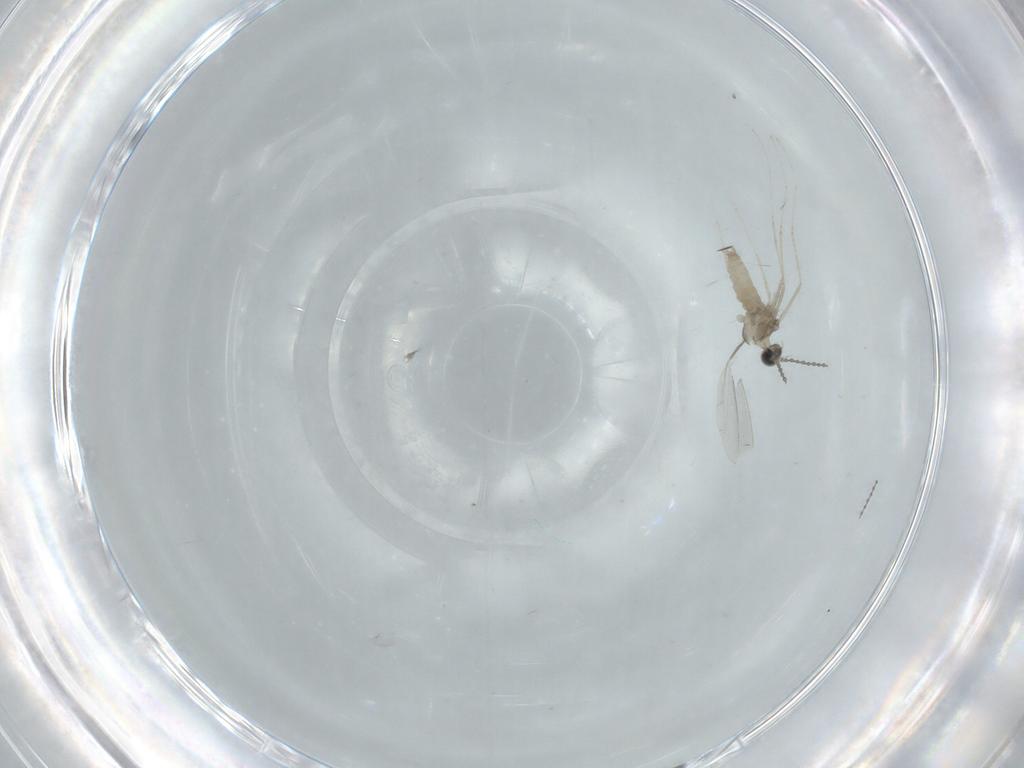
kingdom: Animalia
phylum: Arthropoda
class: Insecta
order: Diptera
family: Cecidomyiidae
